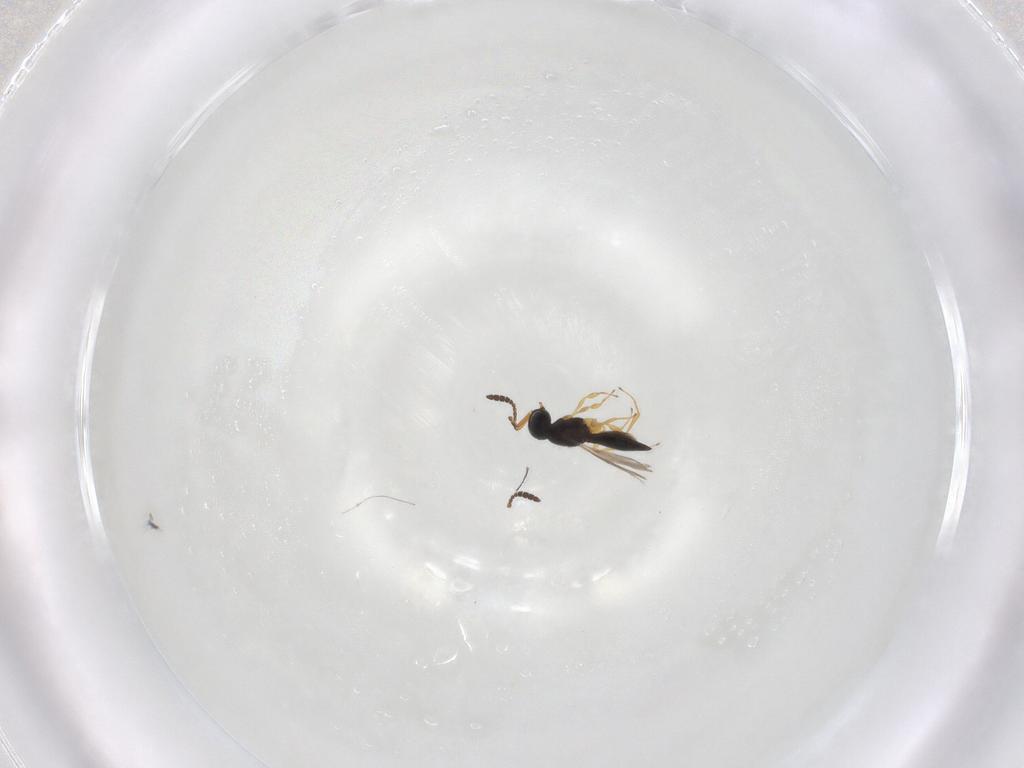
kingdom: Animalia
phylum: Arthropoda
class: Insecta
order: Hymenoptera
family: Scelionidae
